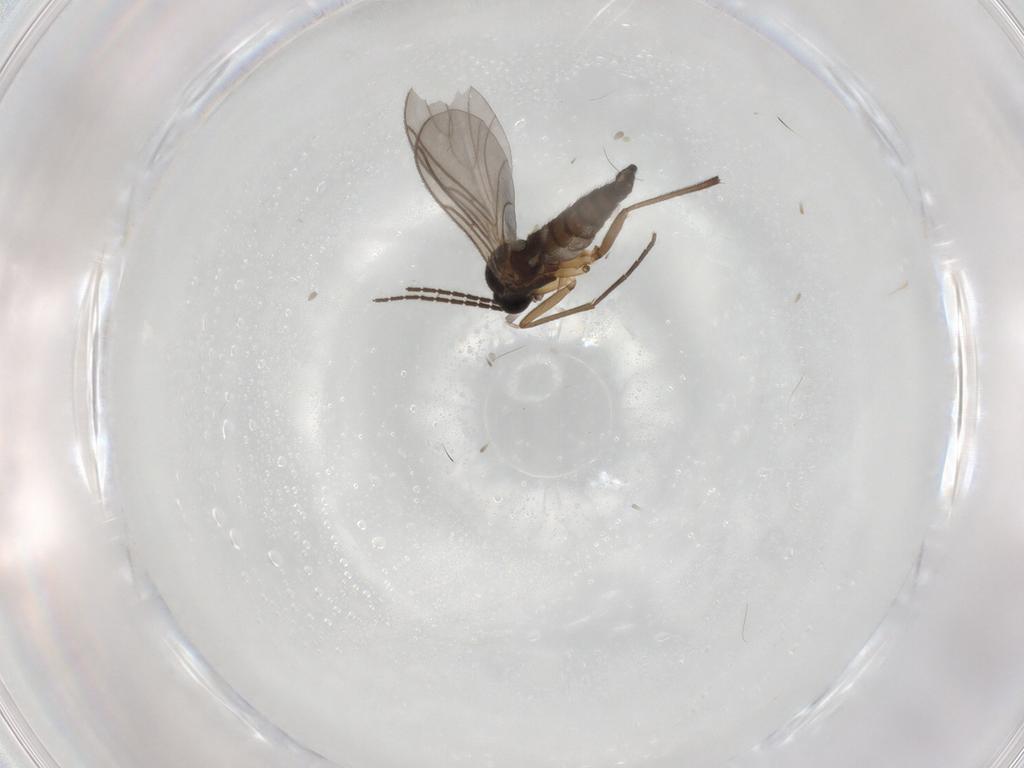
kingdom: Animalia
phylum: Arthropoda
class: Insecta
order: Diptera
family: Sciaridae
